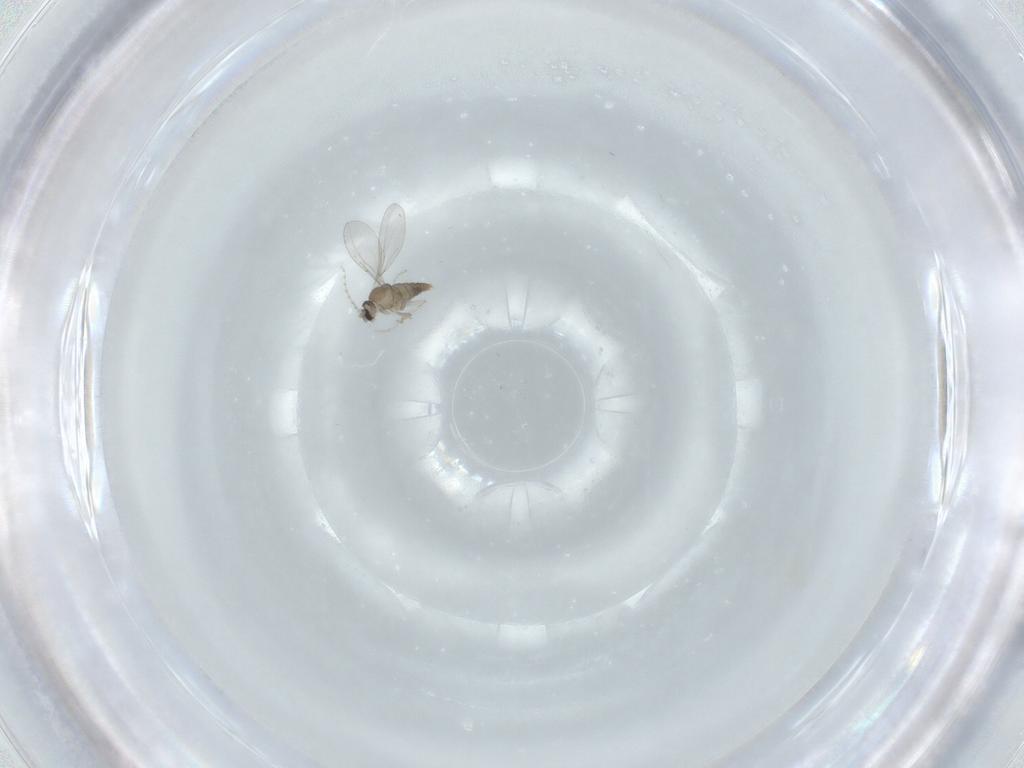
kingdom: Animalia
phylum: Arthropoda
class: Insecta
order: Diptera
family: Cecidomyiidae
